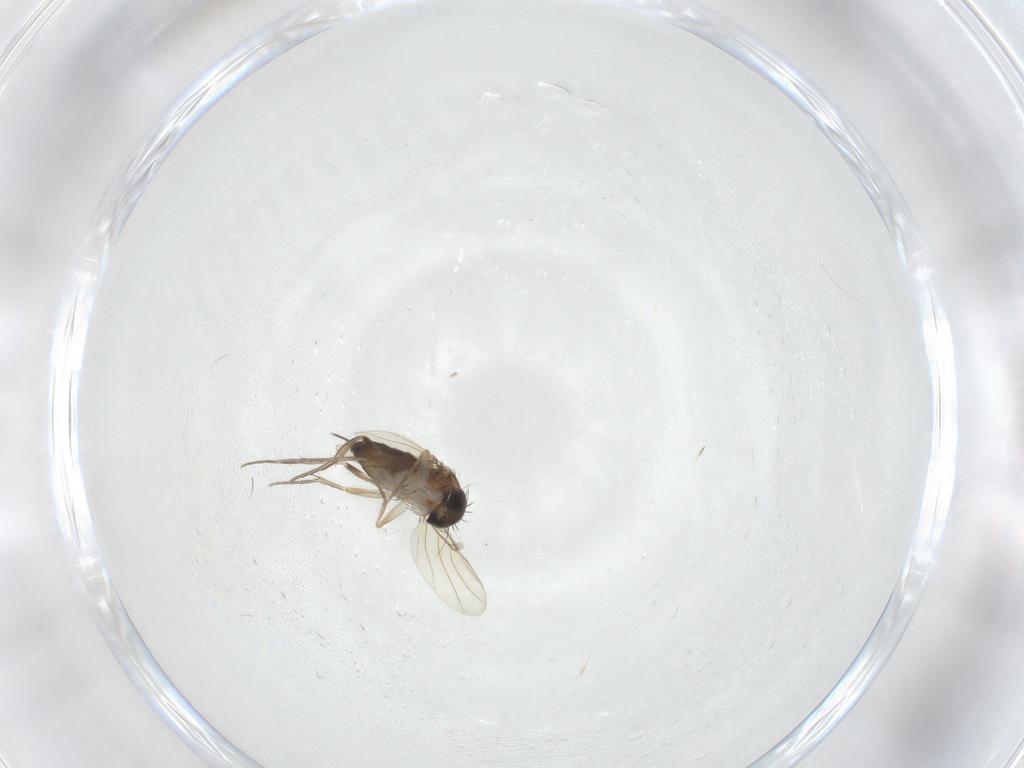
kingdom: Animalia
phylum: Arthropoda
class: Insecta
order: Diptera
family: Phoridae
